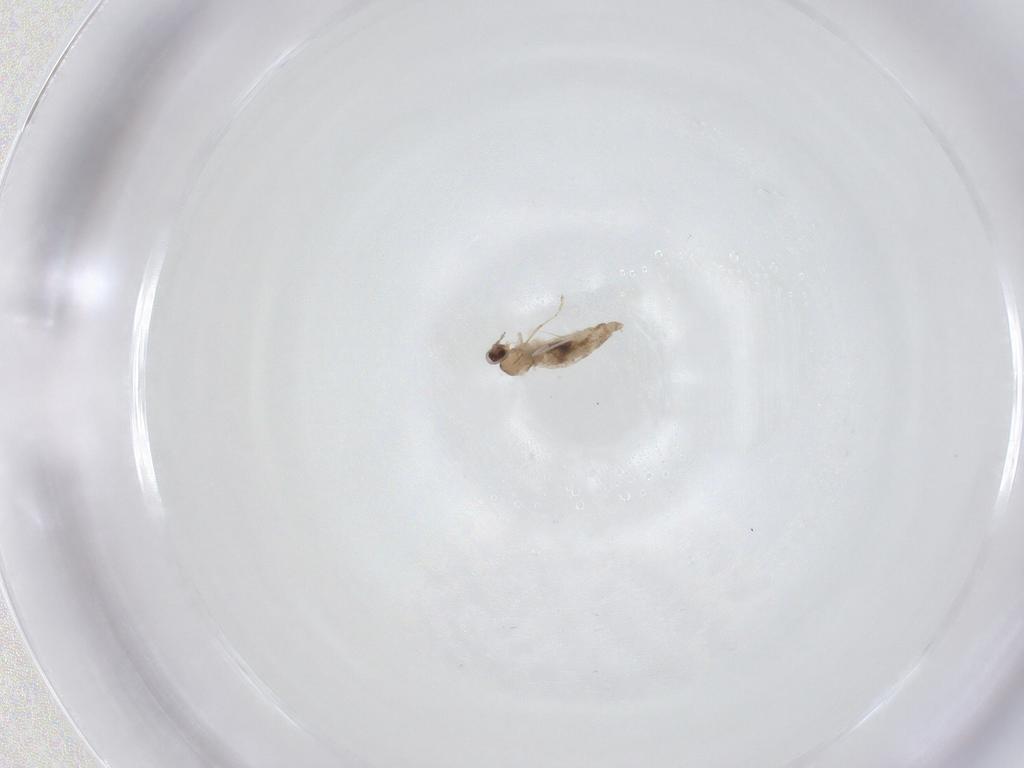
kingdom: Animalia
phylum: Arthropoda
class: Insecta
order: Diptera
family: Cecidomyiidae
